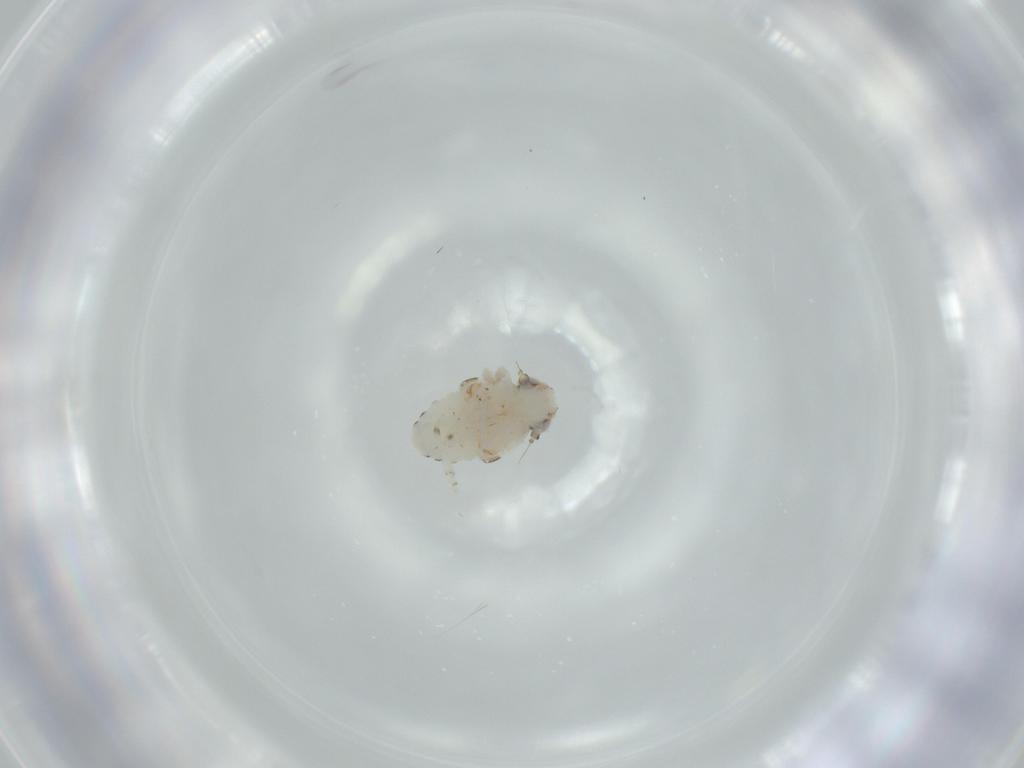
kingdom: Animalia
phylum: Arthropoda
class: Insecta
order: Hemiptera
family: Nogodinidae
